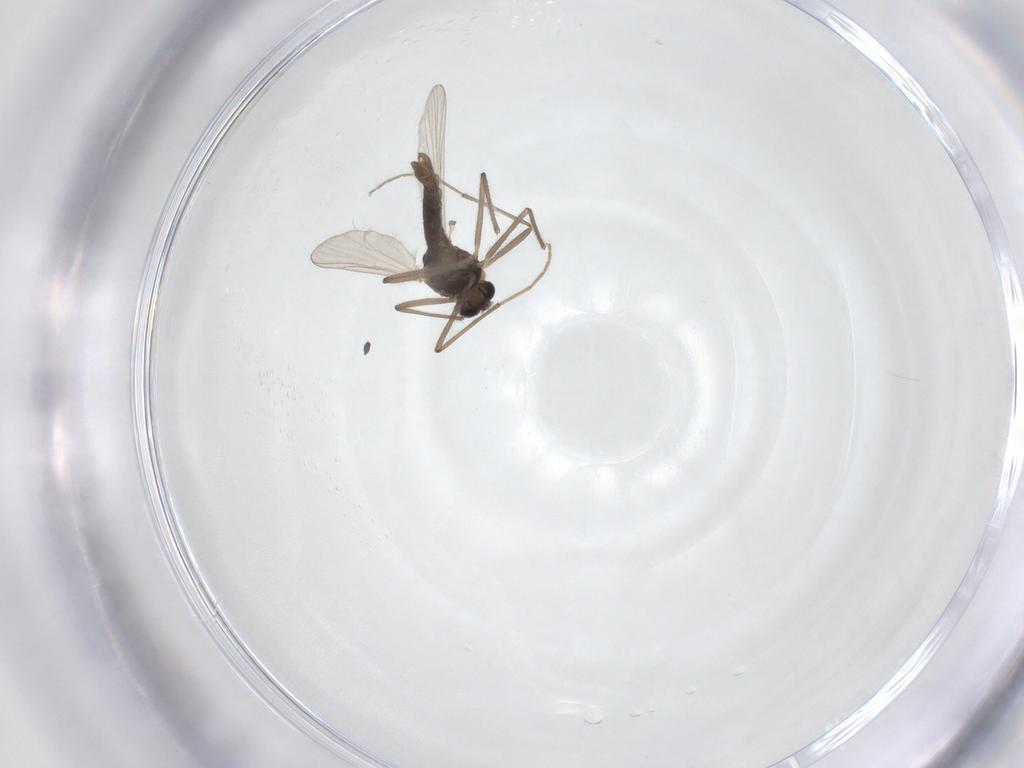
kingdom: Animalia
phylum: Arthropoda
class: Insecta
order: Diptera
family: Chironomidae
